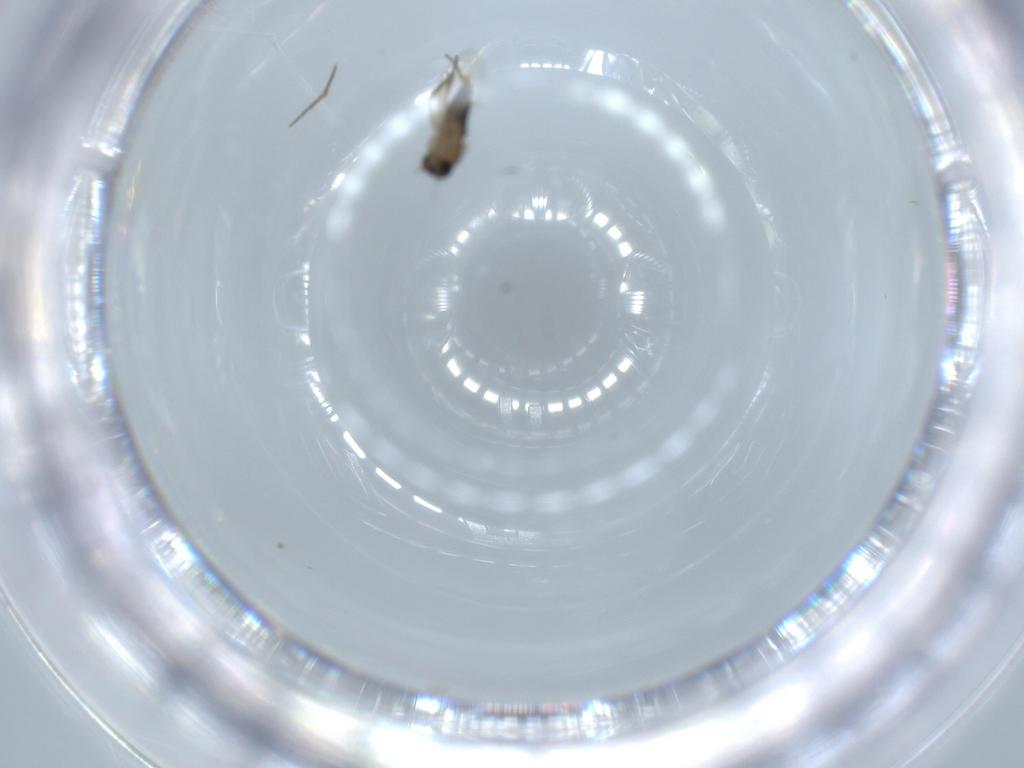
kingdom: Animalia
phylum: Arthropoda
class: Insecta
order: Diptera
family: Phoridae
